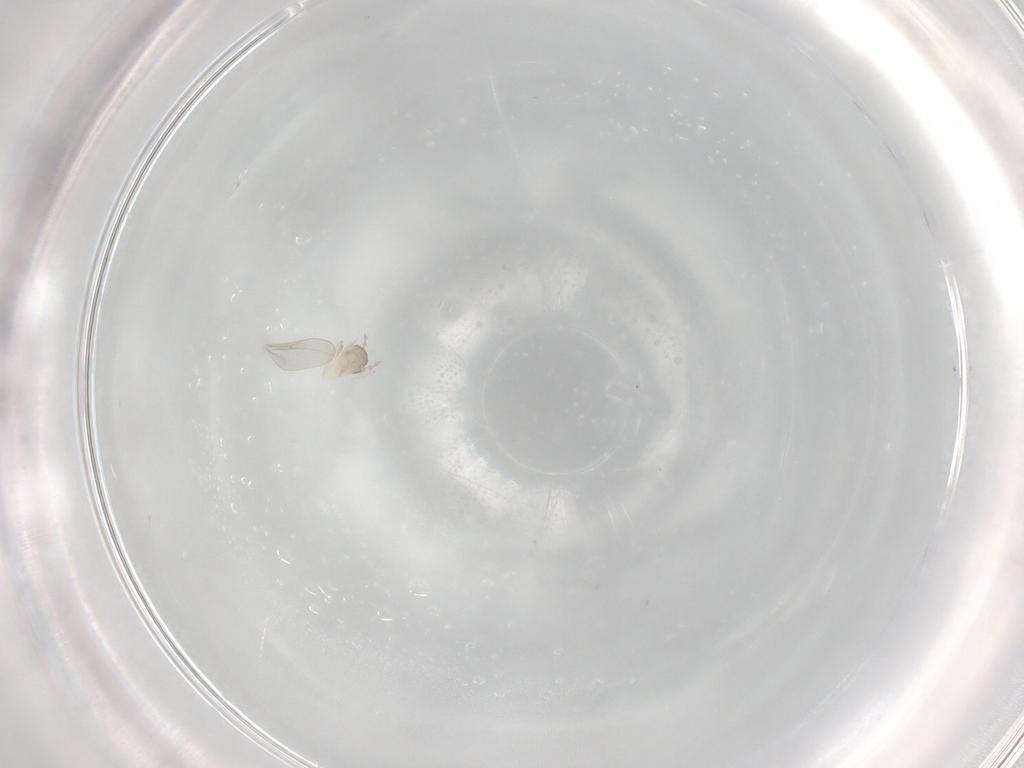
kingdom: Animalia
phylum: Arthropoda
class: Insecta
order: Diptera
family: Cecidomyiidae
